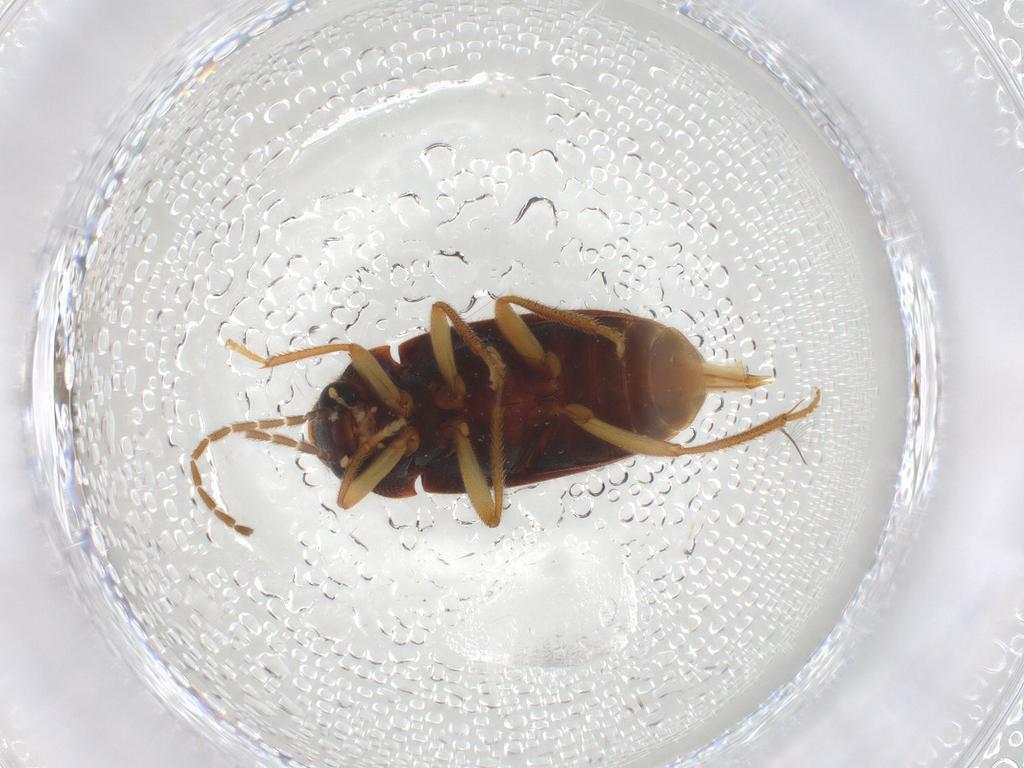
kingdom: Animalia
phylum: Arthropoda
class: Insecta
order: Coleoptera
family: Ptilodactylidae
